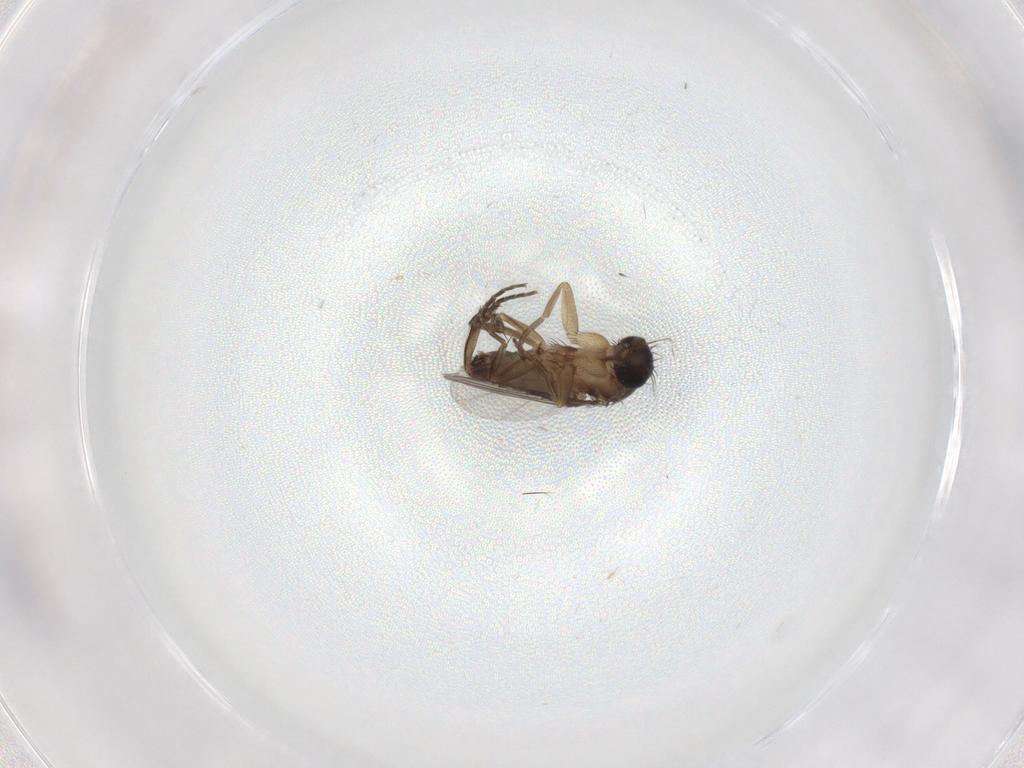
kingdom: Animalia
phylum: Arthropoda
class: Insecta
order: Diptera
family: Phoridae
